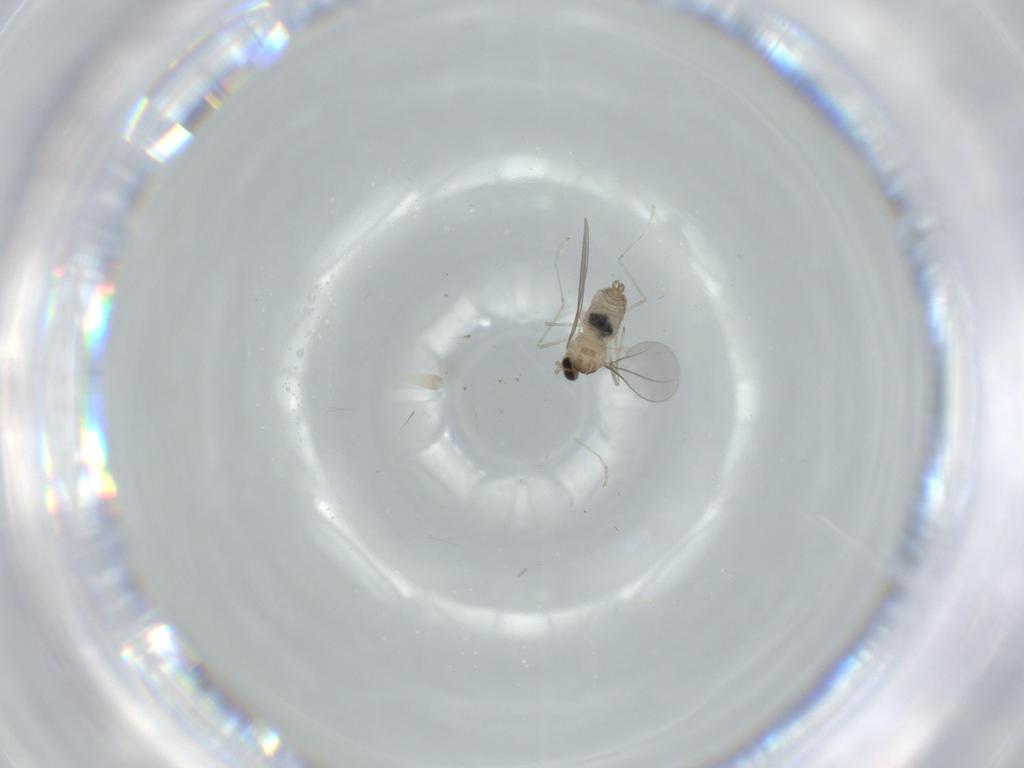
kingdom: Animalia
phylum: Arthropoda
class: Insecta
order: Diptera
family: Cecidomyiidae
